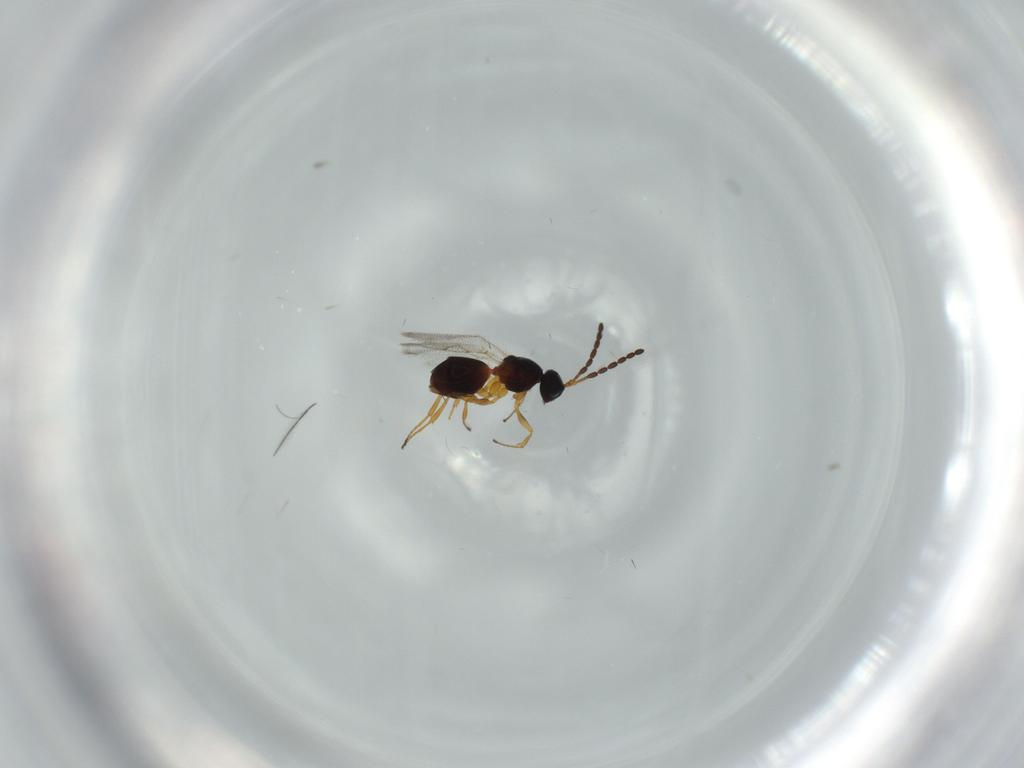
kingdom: Animalia
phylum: Arthropoda
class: Insecta
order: Hymenoptera
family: Figitidae
